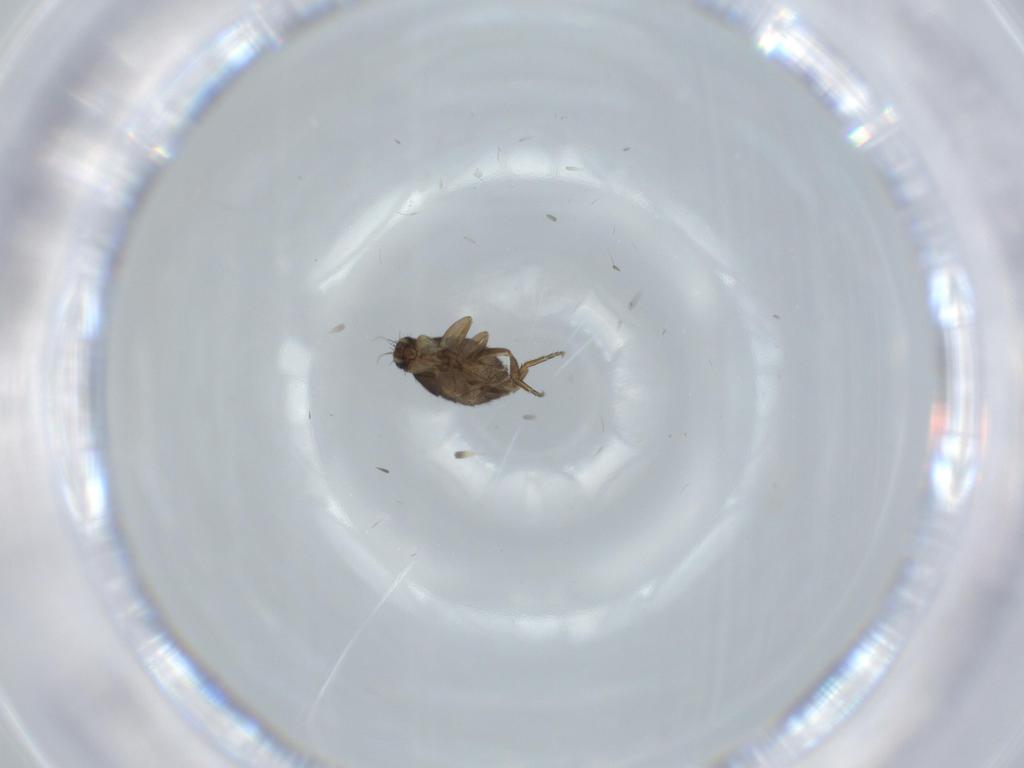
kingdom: Animalia
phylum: Arthropoda
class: Insecta
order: Diptera
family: Phoridae
